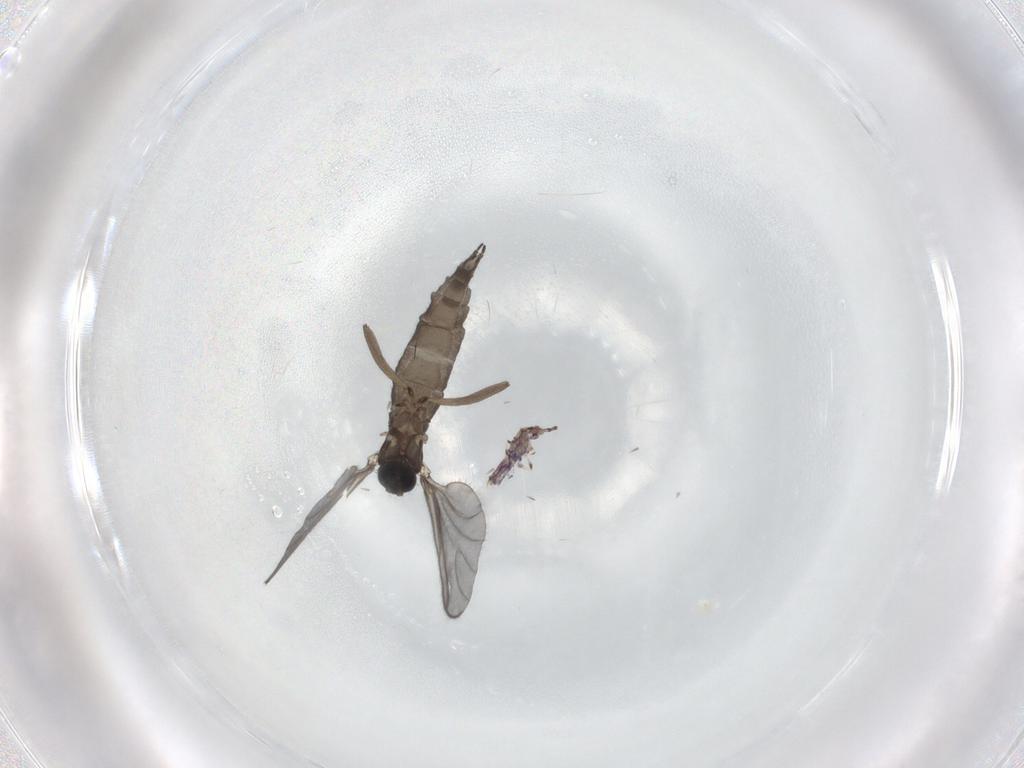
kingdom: Animalia
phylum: Arthropoda
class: Insecta
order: Diptera
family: Sciaridae
